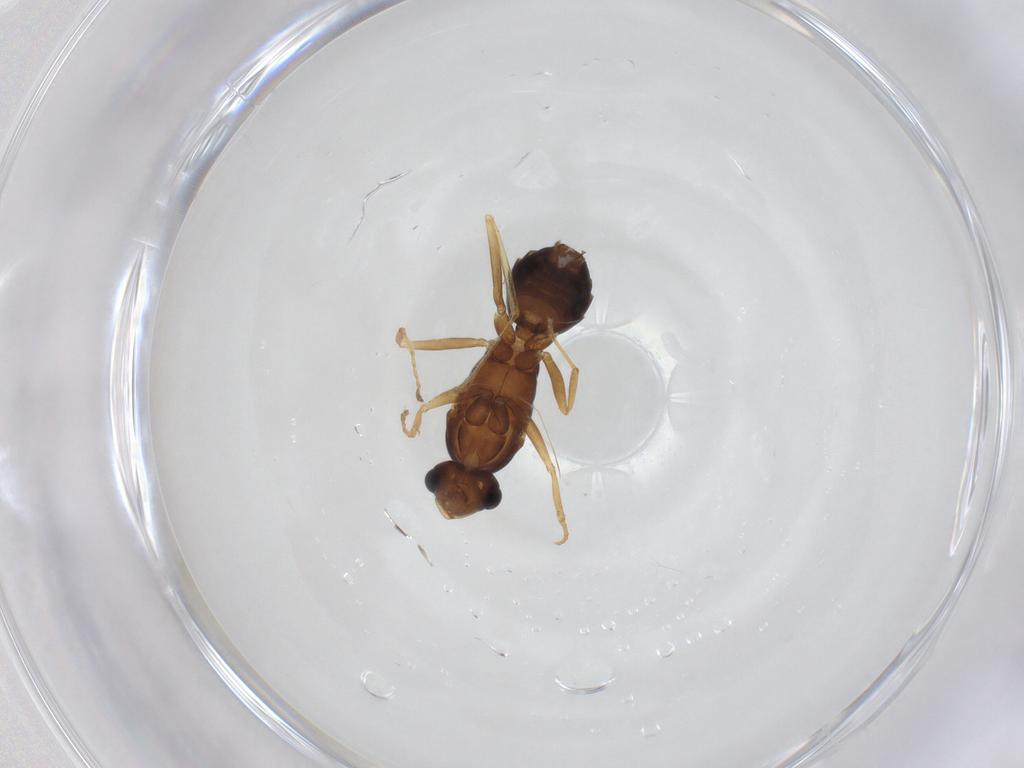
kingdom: Animalia
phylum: Arthropoda
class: Insecta
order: Hymenoptera
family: Formicidae
